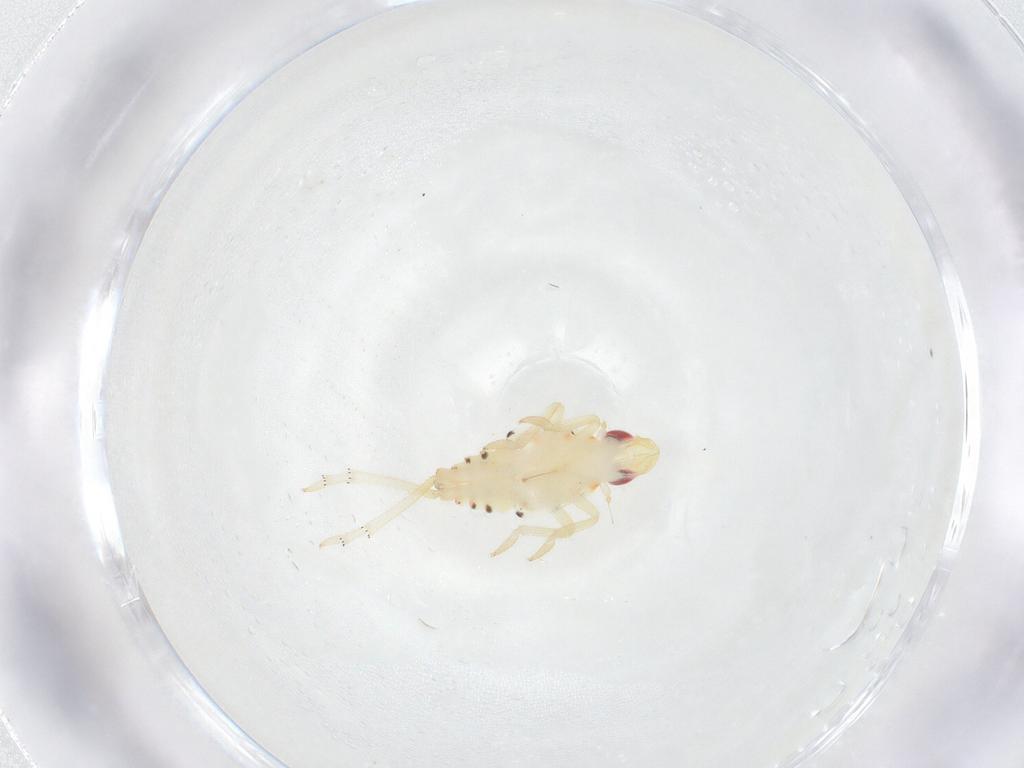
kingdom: Animalia
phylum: Arthropoda
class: Insecta
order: Hemiptera
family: Tropiduchidae
